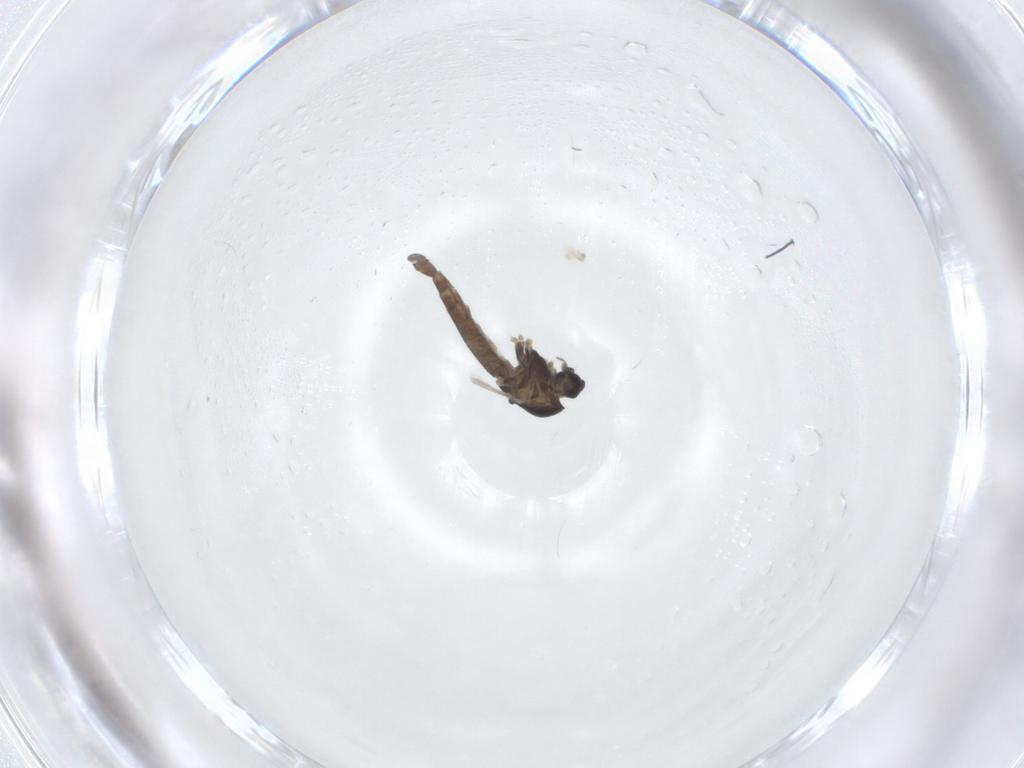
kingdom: Animalia
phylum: Arthropoda
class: Insecta
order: Diptera
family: Chironomidae
